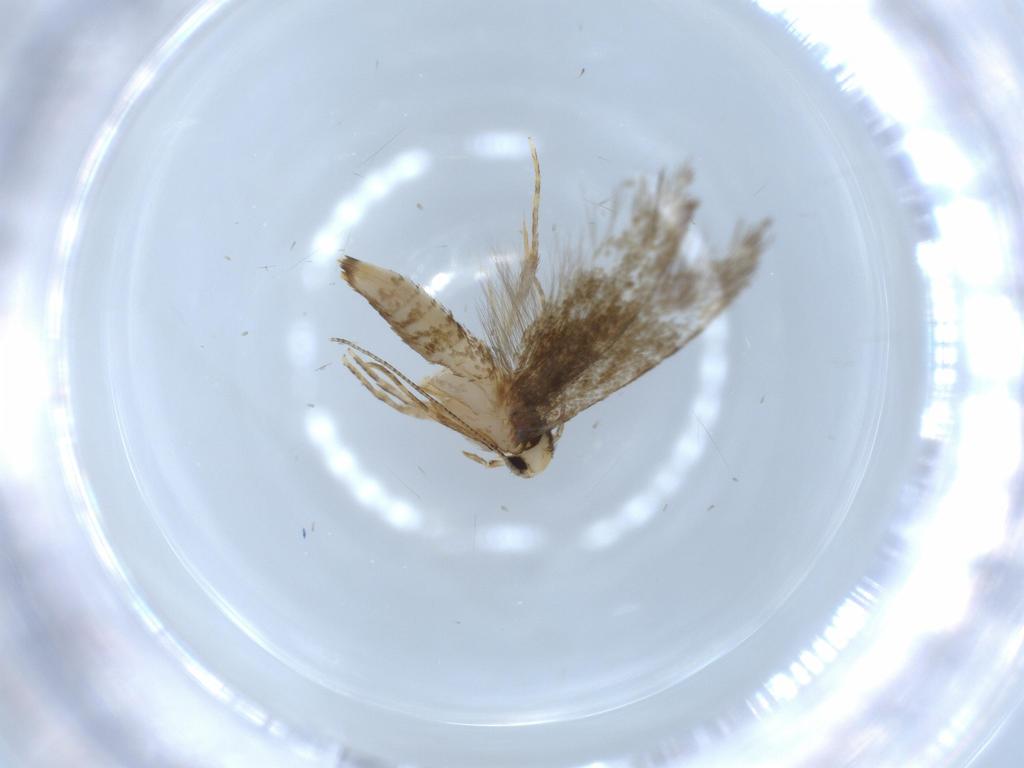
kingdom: Animalia
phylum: Arthropoda
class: Insecta
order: Lepidoptera
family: Tineidae
